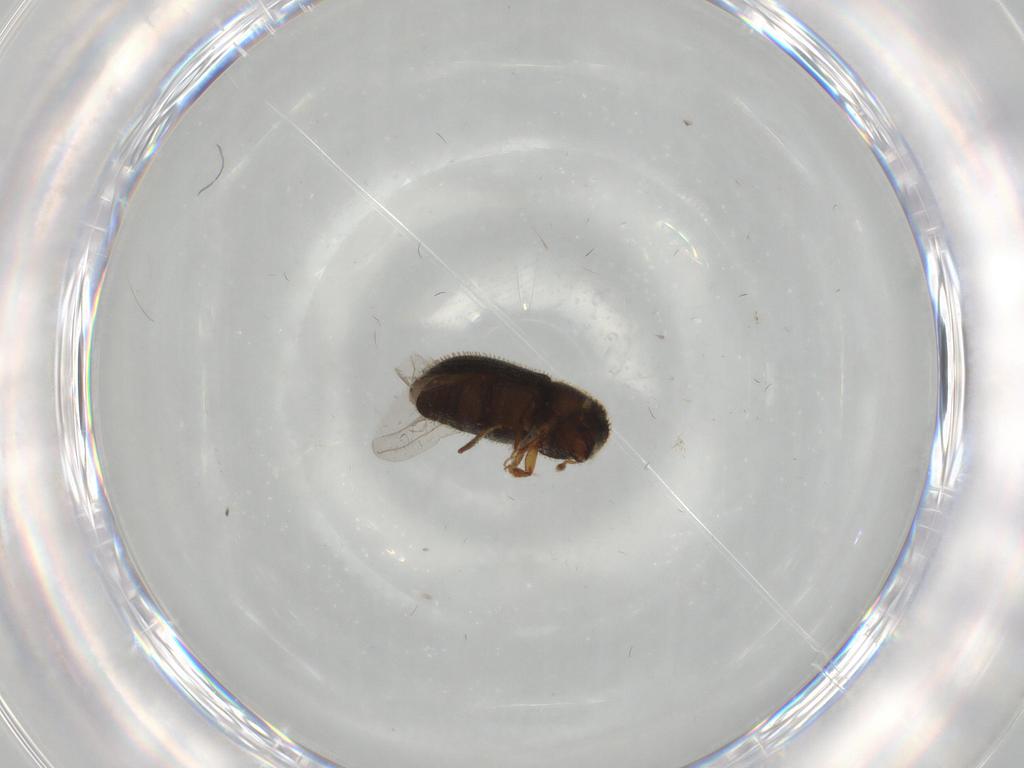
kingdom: Animalia
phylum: Arthropoda
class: Insecta
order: Coleoptera
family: Curculionidae
